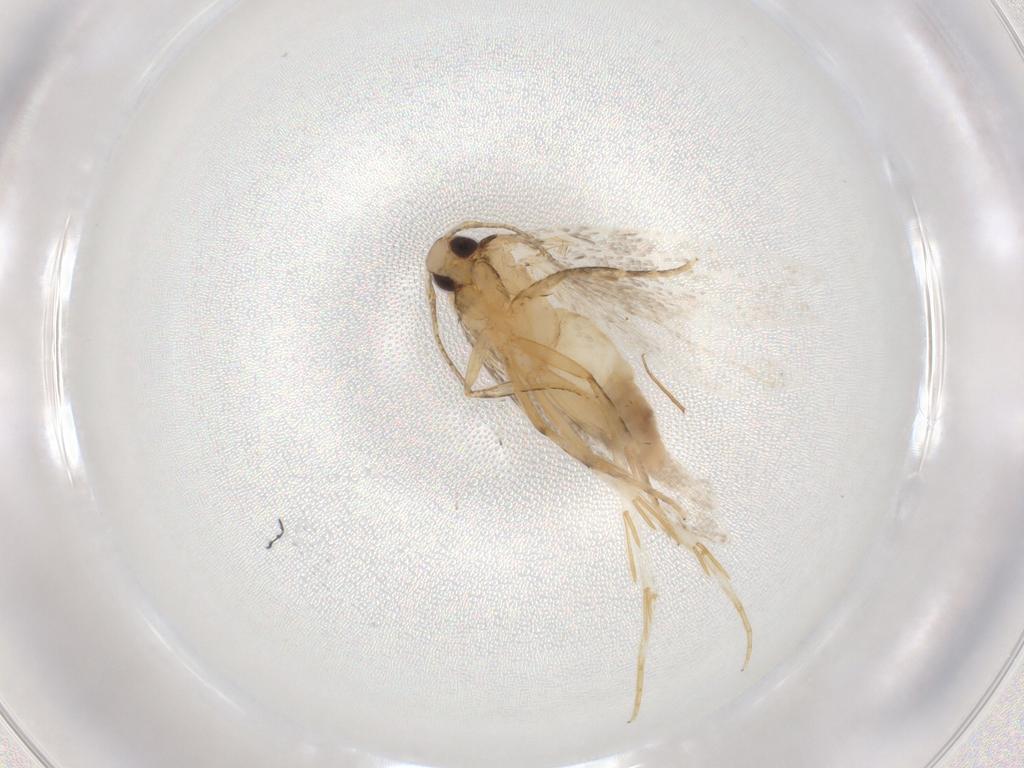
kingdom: Animalia
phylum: Arthropoda
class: Insecta
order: Lepidoptera
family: Autostichidae
